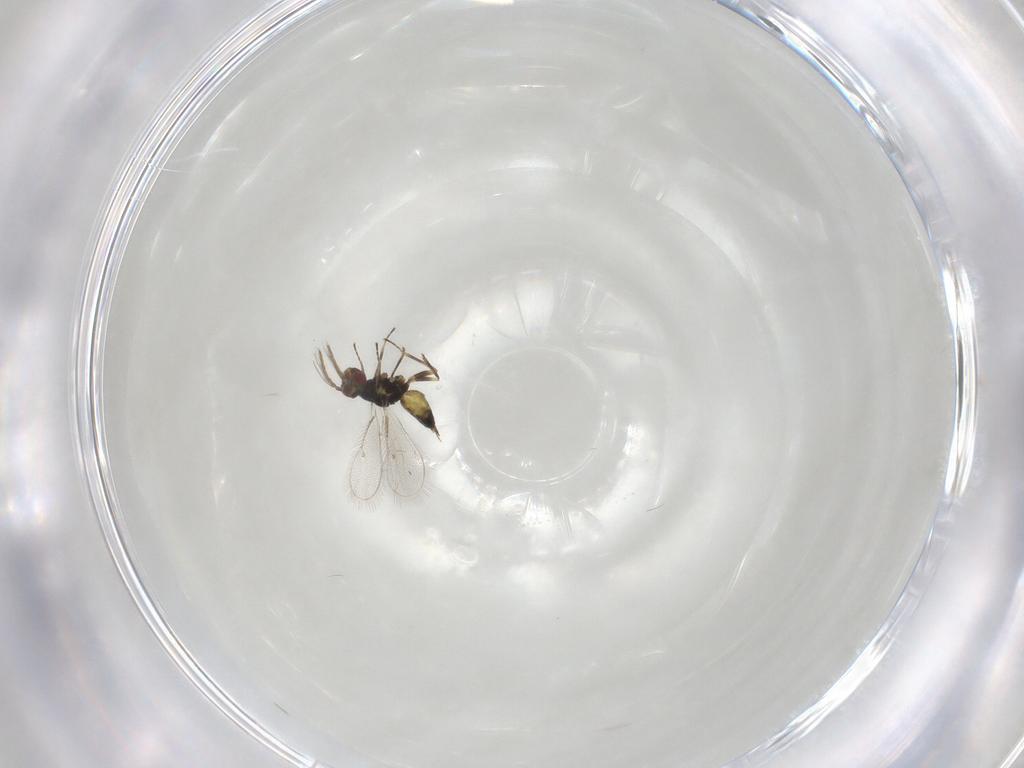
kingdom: Animalia
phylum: Arthropoda
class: Insecta
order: Hymenoptera
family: Eulophidae
